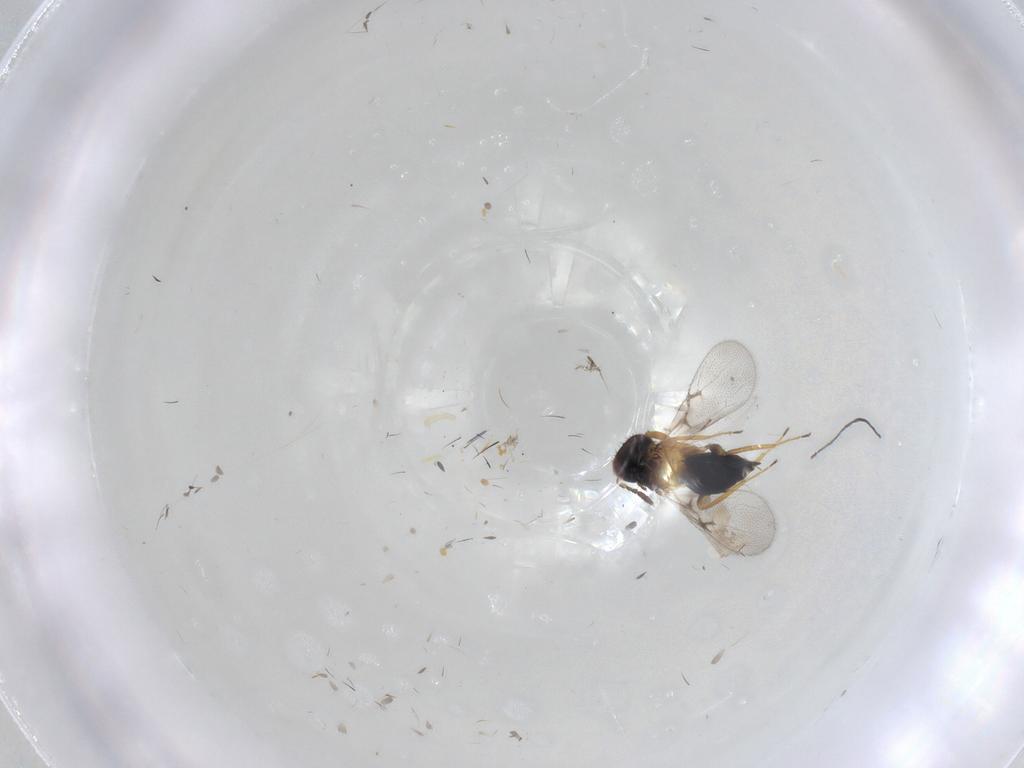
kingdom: Animalia
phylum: Arthropoda
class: Insecta
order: Hymenoptera
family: Trichogrammatidae
